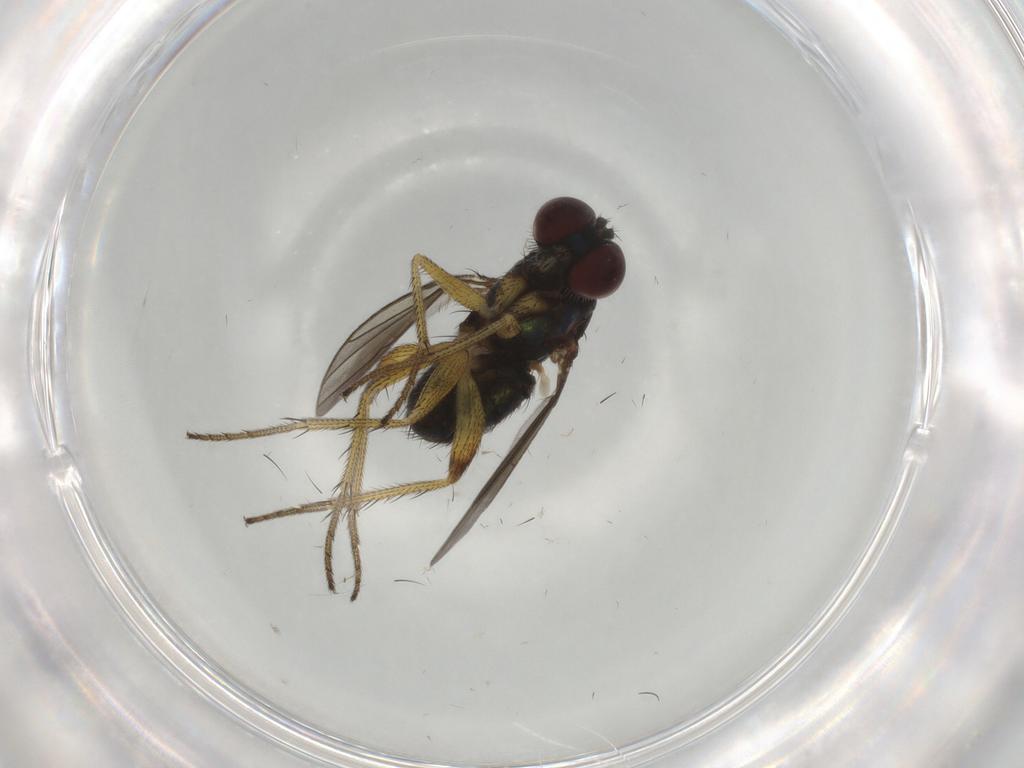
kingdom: Animalia
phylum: Arthropoda
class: Insecta
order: Diptera
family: Dolichopodidae
